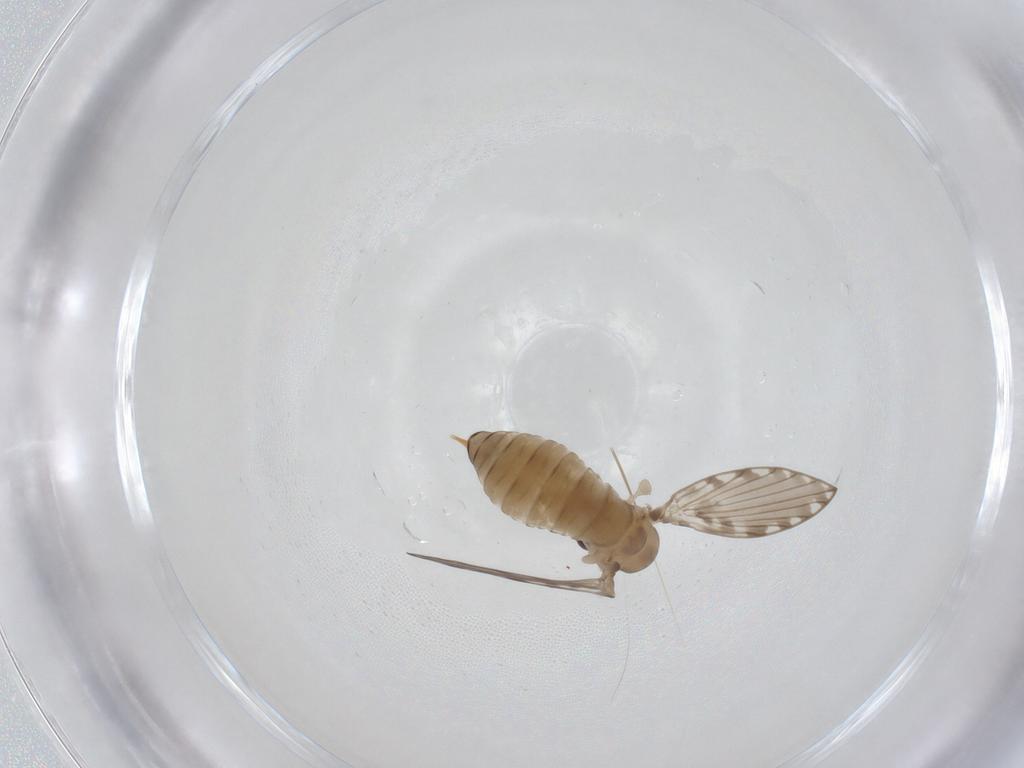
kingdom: Animalia
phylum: Arthropoda
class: Insecta
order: Diptera
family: Psychodidae
